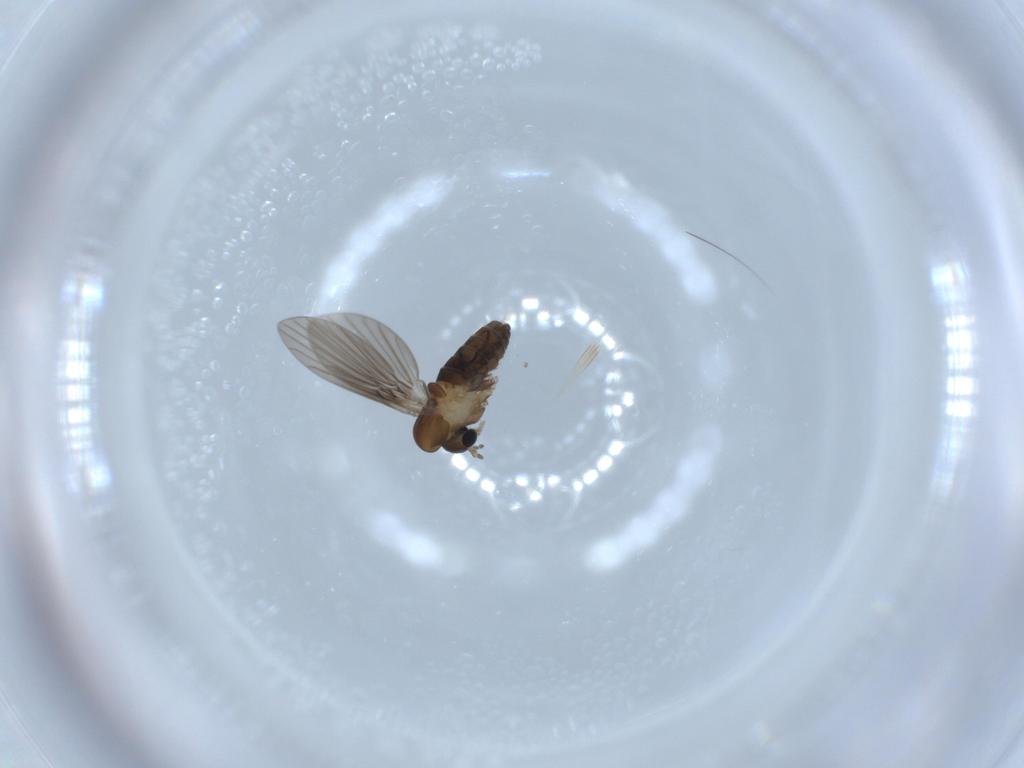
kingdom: Animalia
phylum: Arthropoda
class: Insecta
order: Diptera
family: Psychodidae
